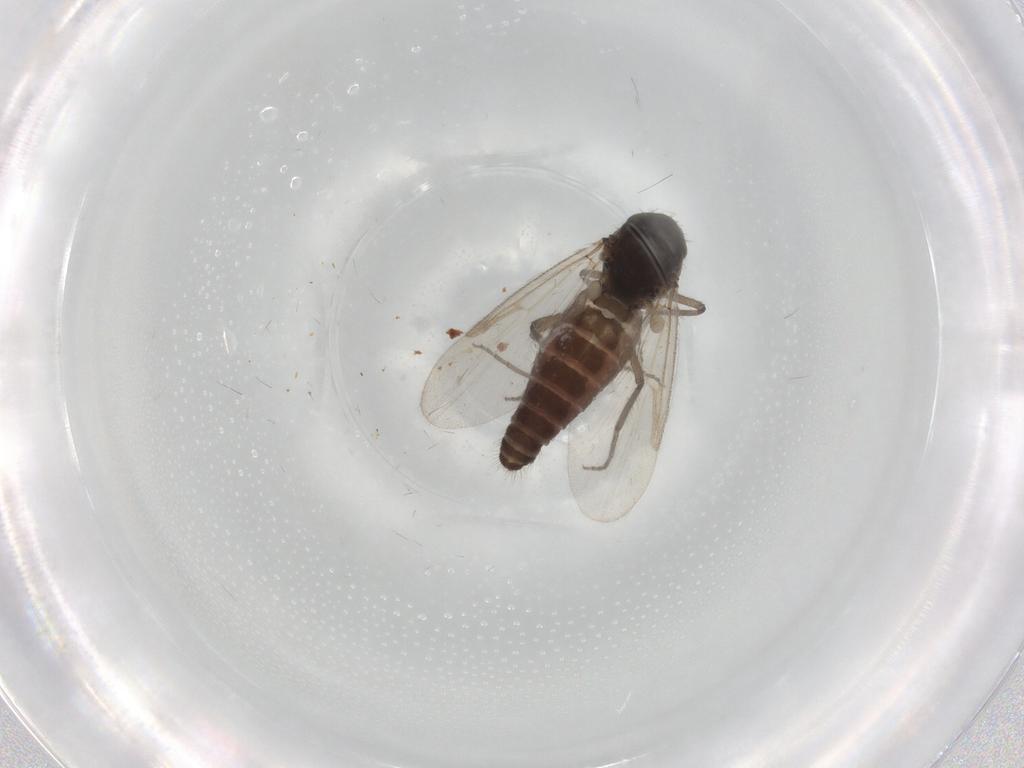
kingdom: Animalia
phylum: Arthropoda
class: Insecta
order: Diptera
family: Ceratopogonidae
